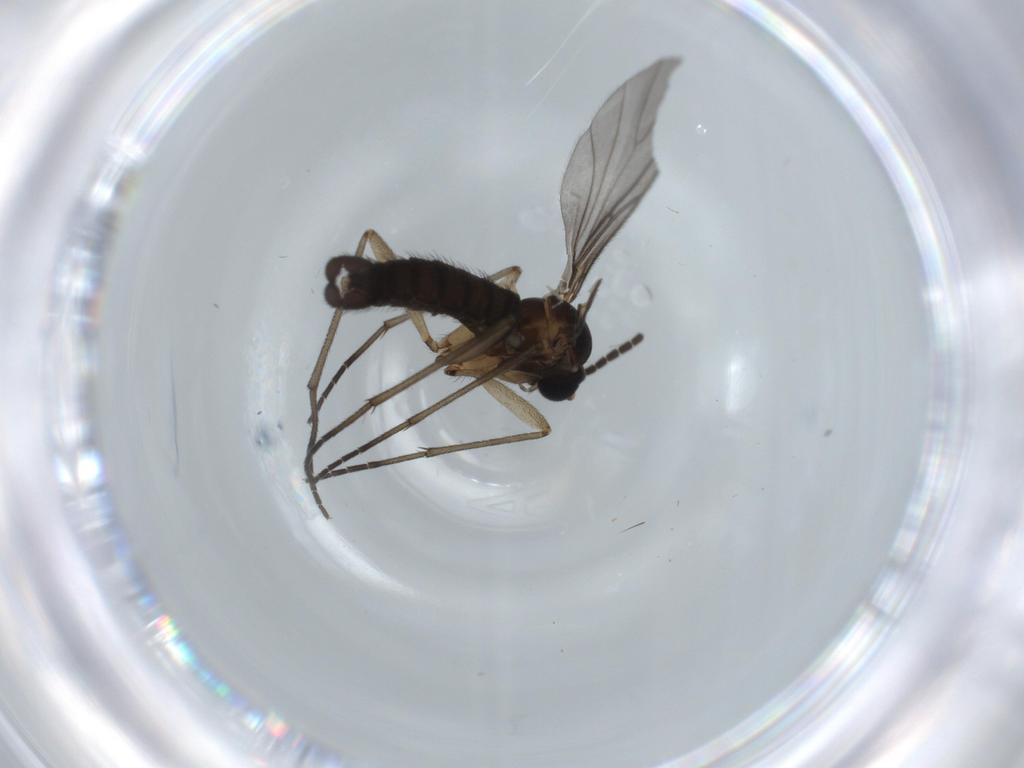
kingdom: Animalia
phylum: Arthropoda
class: Insecta
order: Diptera
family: Sciaridae
